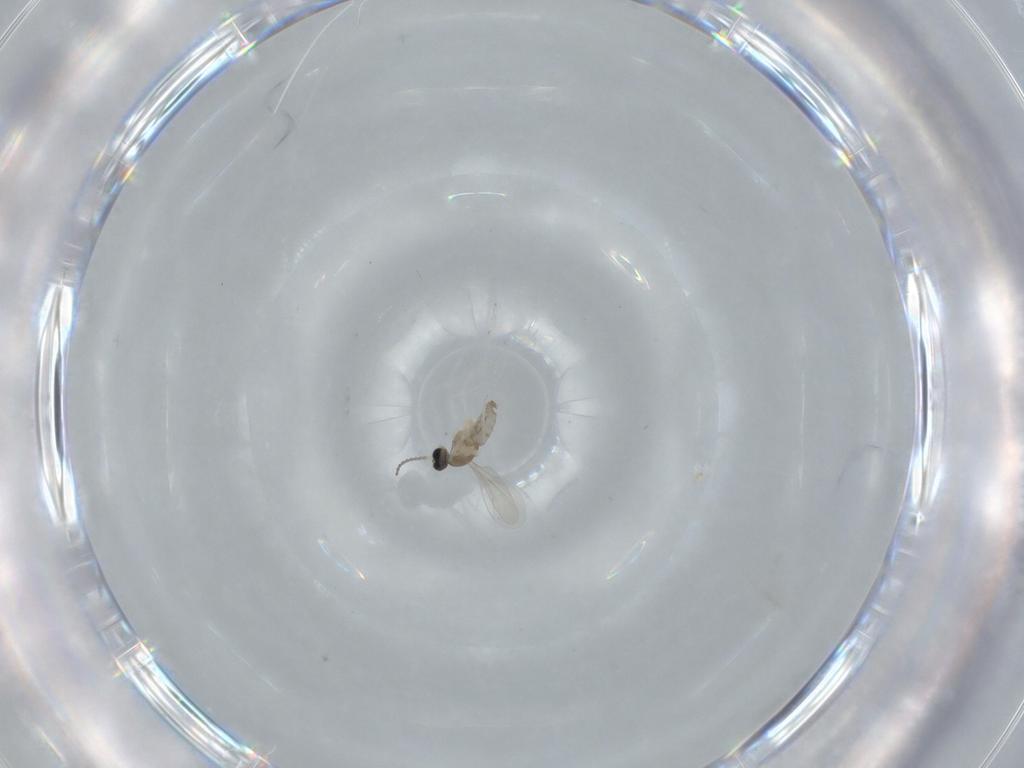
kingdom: Animalia
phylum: Arthropoda
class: Insecta
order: Diptera
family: Cecidomyiidae
